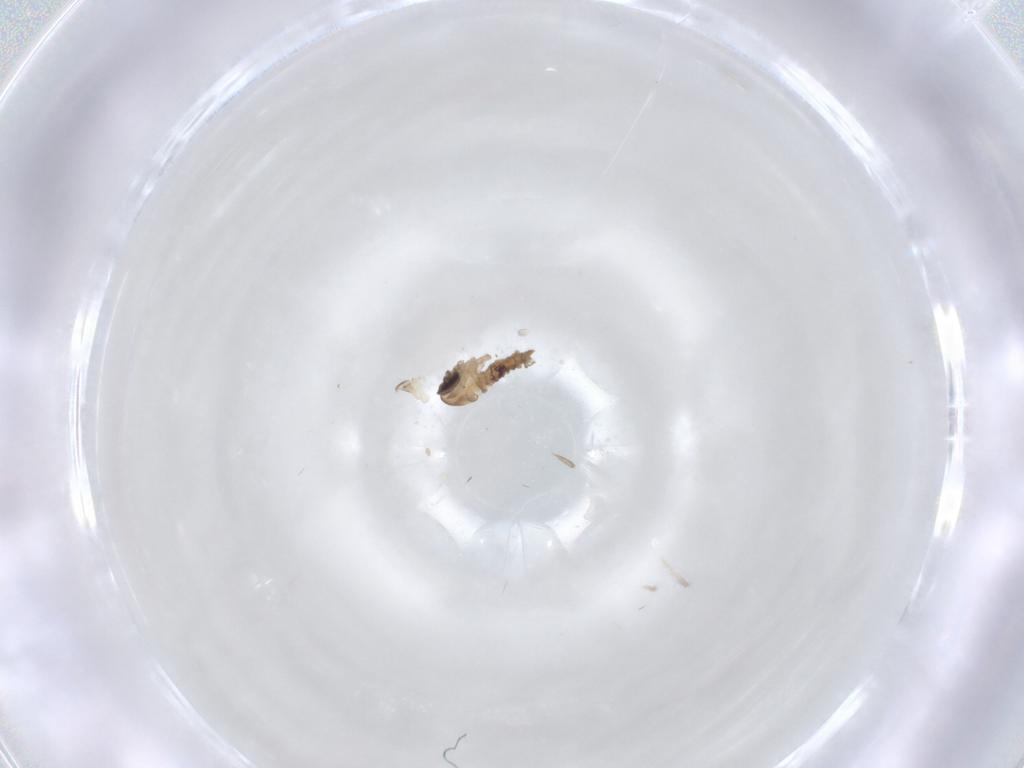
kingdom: Animalia
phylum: Arthropoda
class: Insecta
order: Diptera
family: Psychodidae
